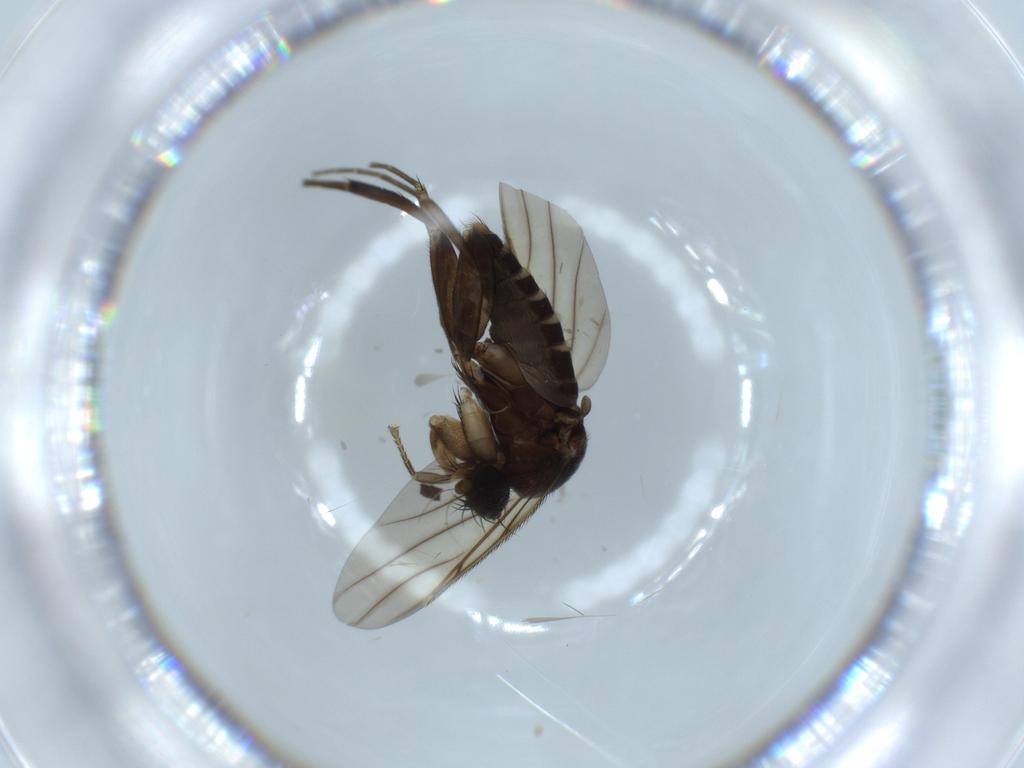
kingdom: Animalia
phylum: Arthropoda
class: Insecta
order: Diptera
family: Phoridae
